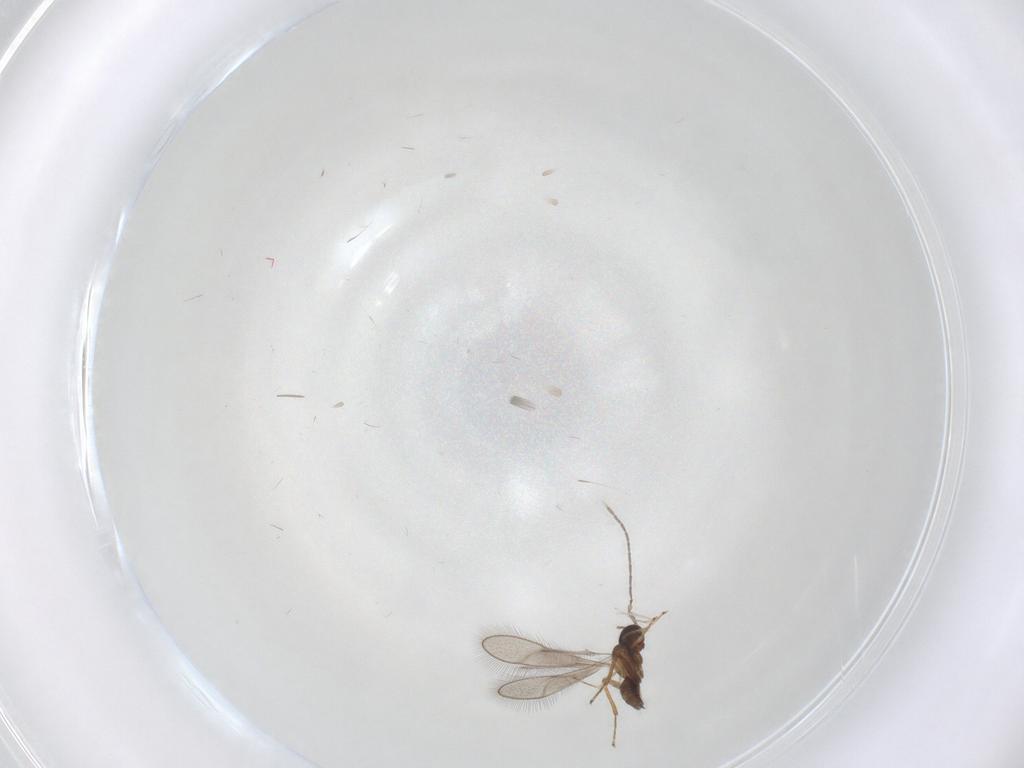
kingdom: Animalia
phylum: Arthropoda
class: Insecta
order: Hymenoptera
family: Mymaridae
